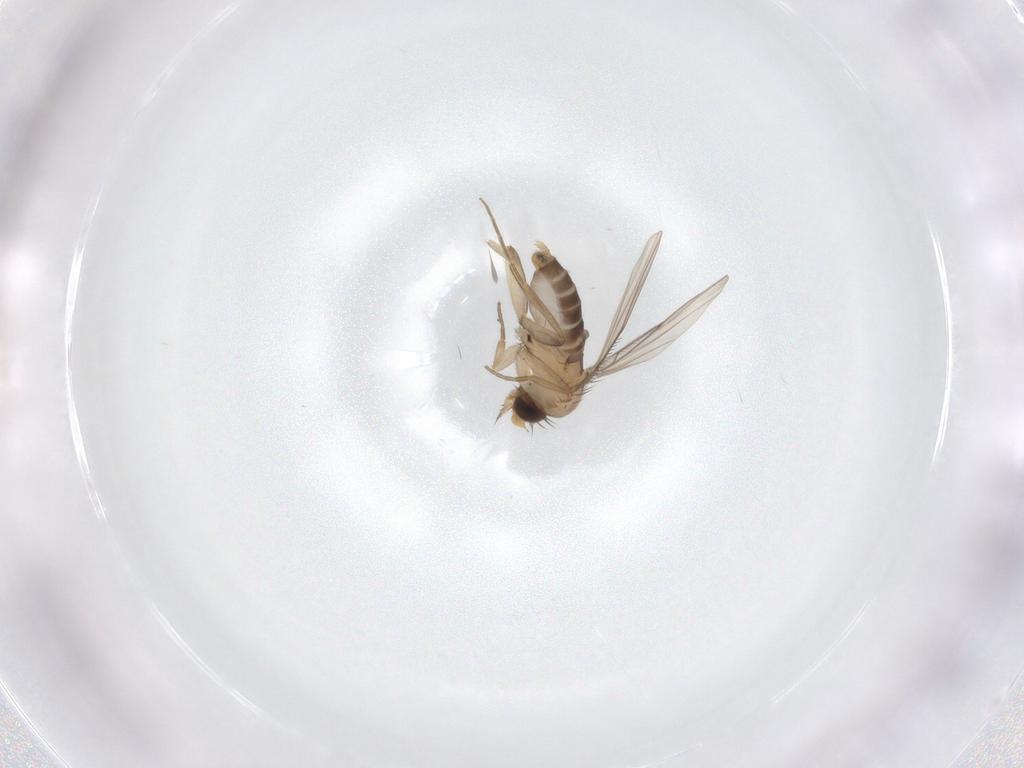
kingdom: Animalia
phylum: Arthropoda
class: Insecta
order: Diptera
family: Phoridae
